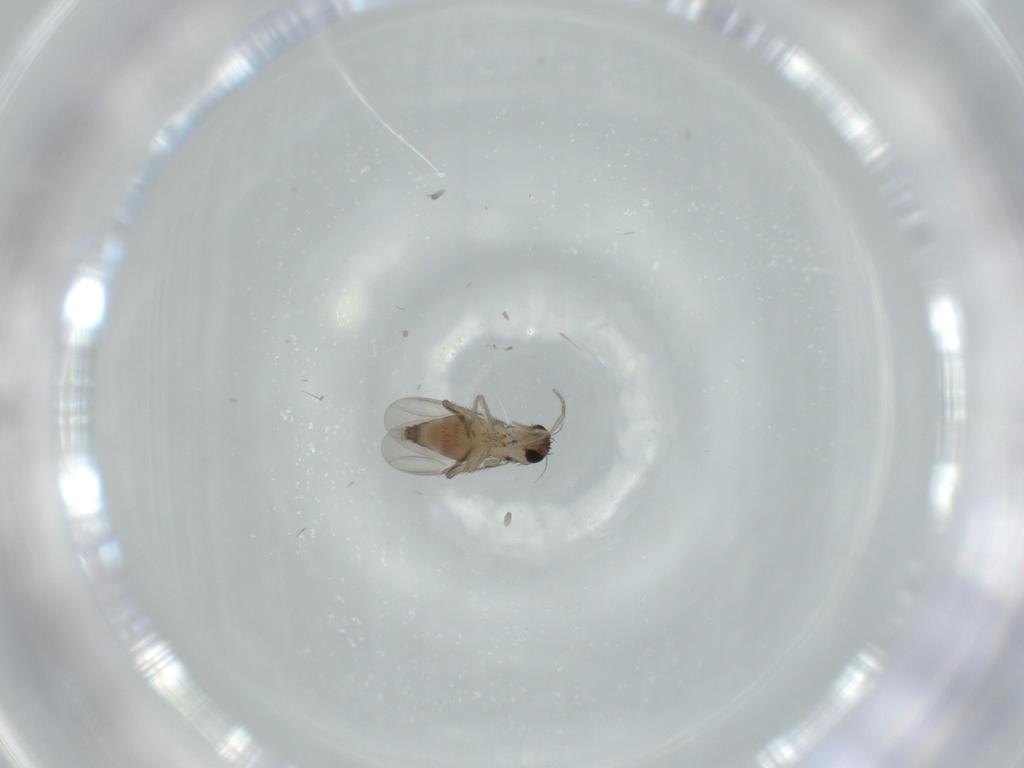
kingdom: Animalia
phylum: Arthropoda
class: Insecta
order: Diptera
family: Phoridae
